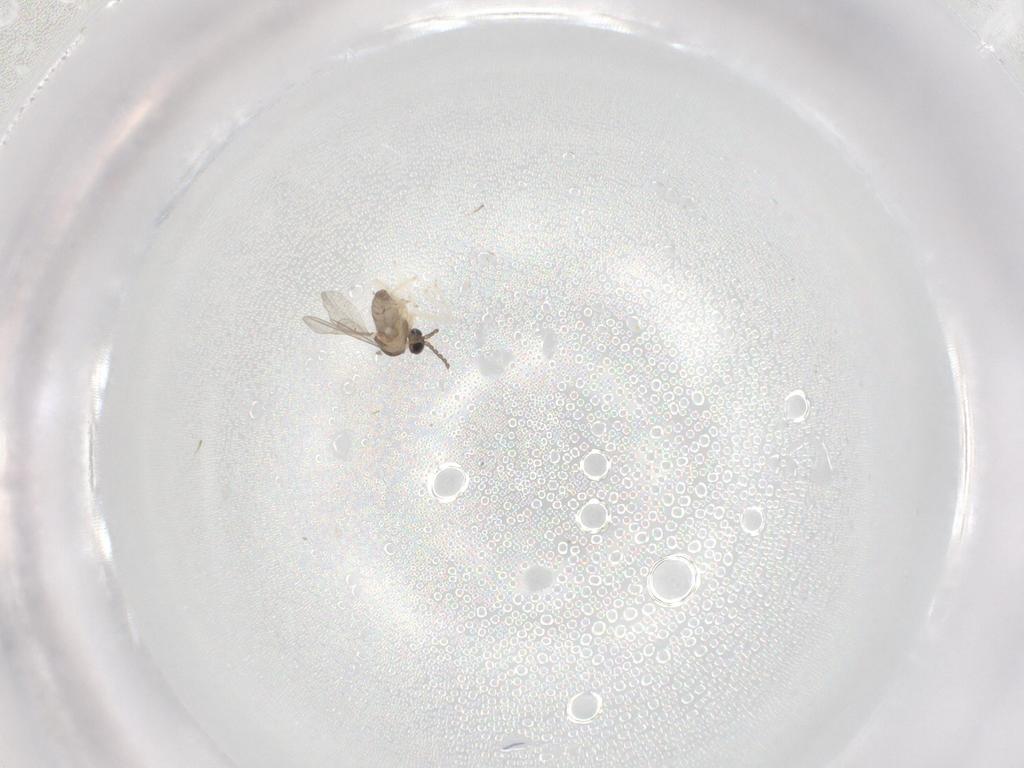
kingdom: Animalia
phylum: Arthropoda
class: Insecta
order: Diptera
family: Cecidomyiidae
